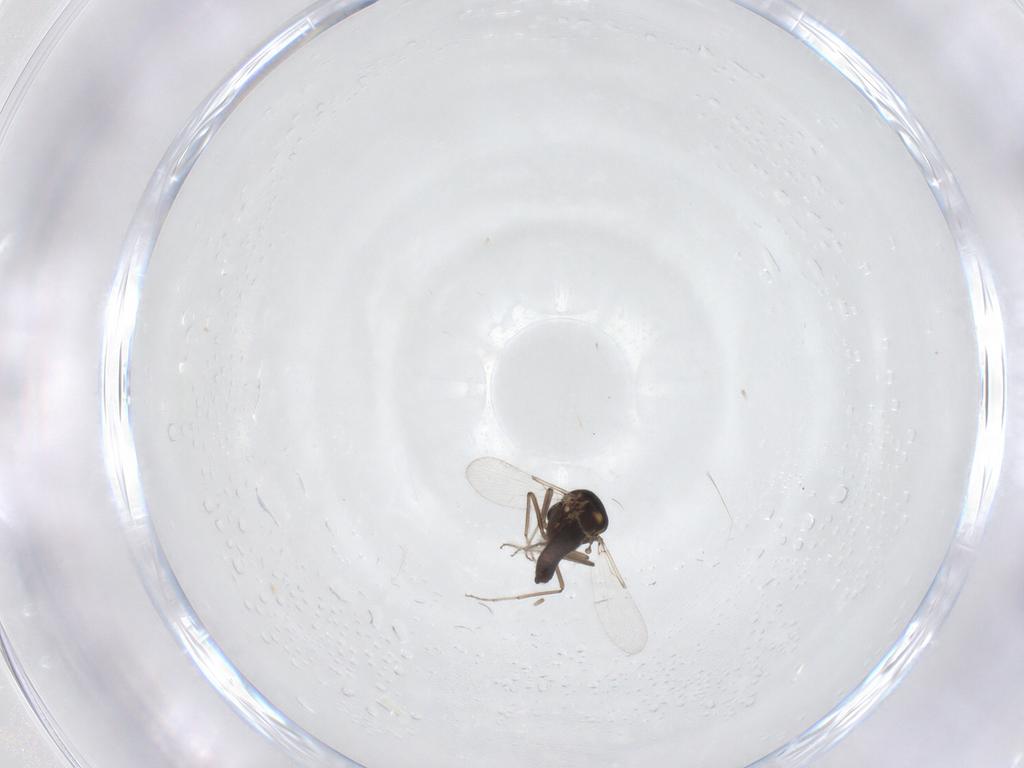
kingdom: Animalia
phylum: Arthropoda
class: Insecta
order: Diptera
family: Ceratopogonidae
